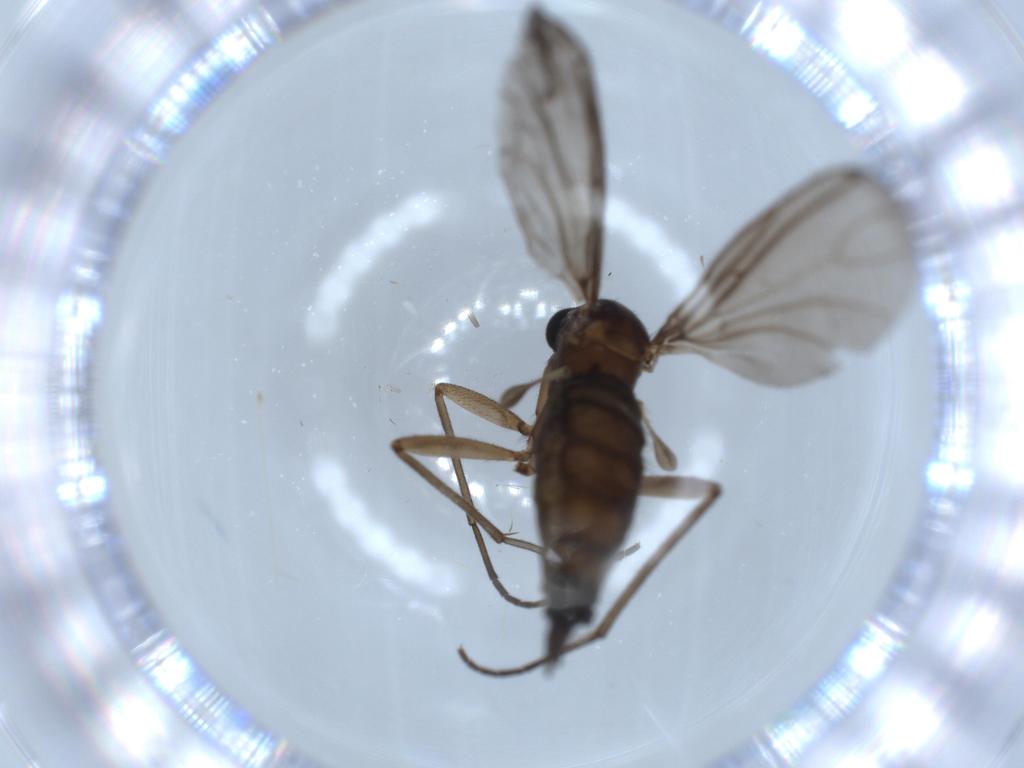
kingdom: Animalia
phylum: Arthropoda
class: Insecta
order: Diptera
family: Sciaridae
